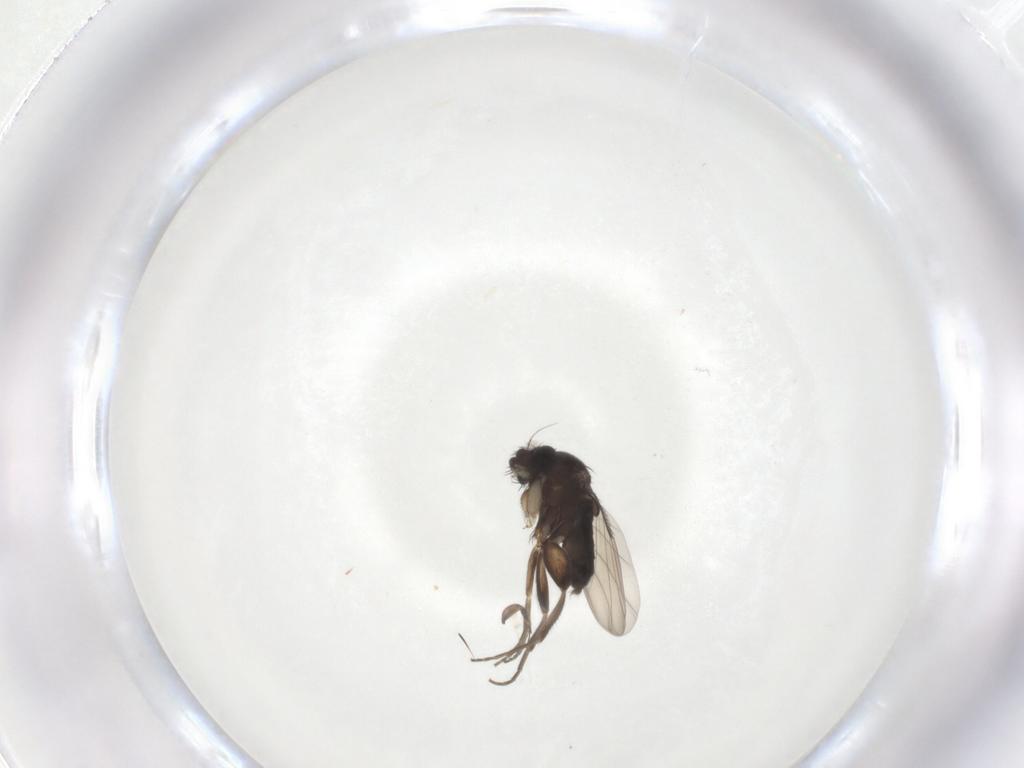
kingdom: Animalia
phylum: Arthropoda
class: Insecta
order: Diptera
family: Phoridae
